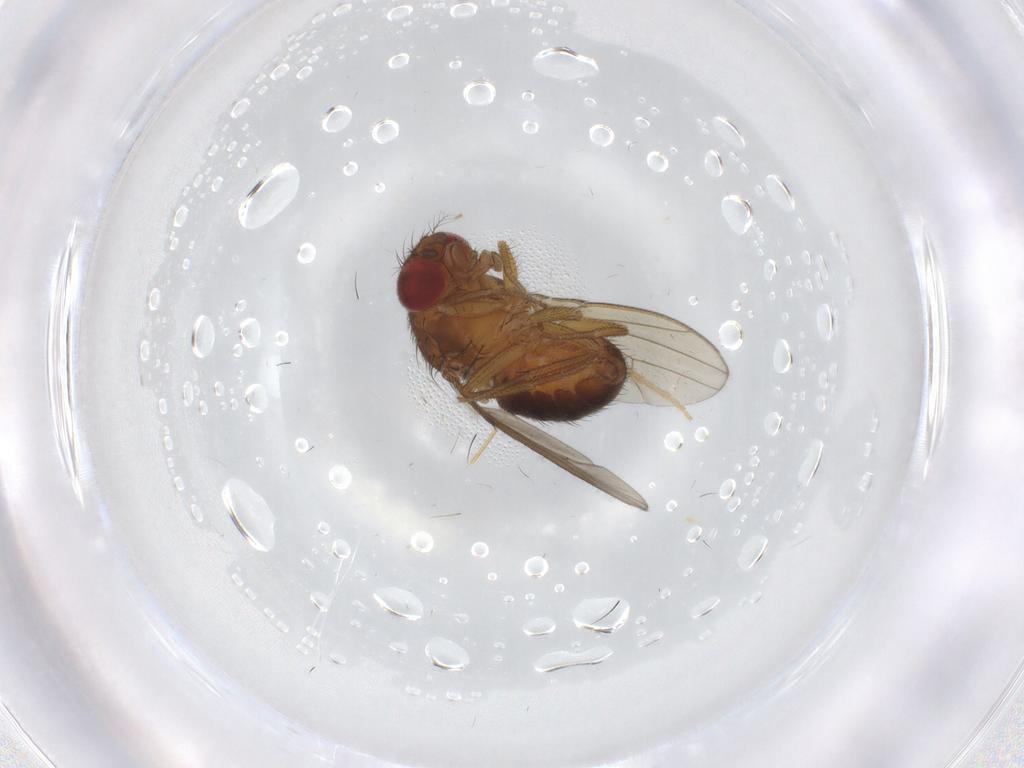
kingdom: Animalia
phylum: Arthropoda
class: Insecta
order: Diptera
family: Drosophilidae
